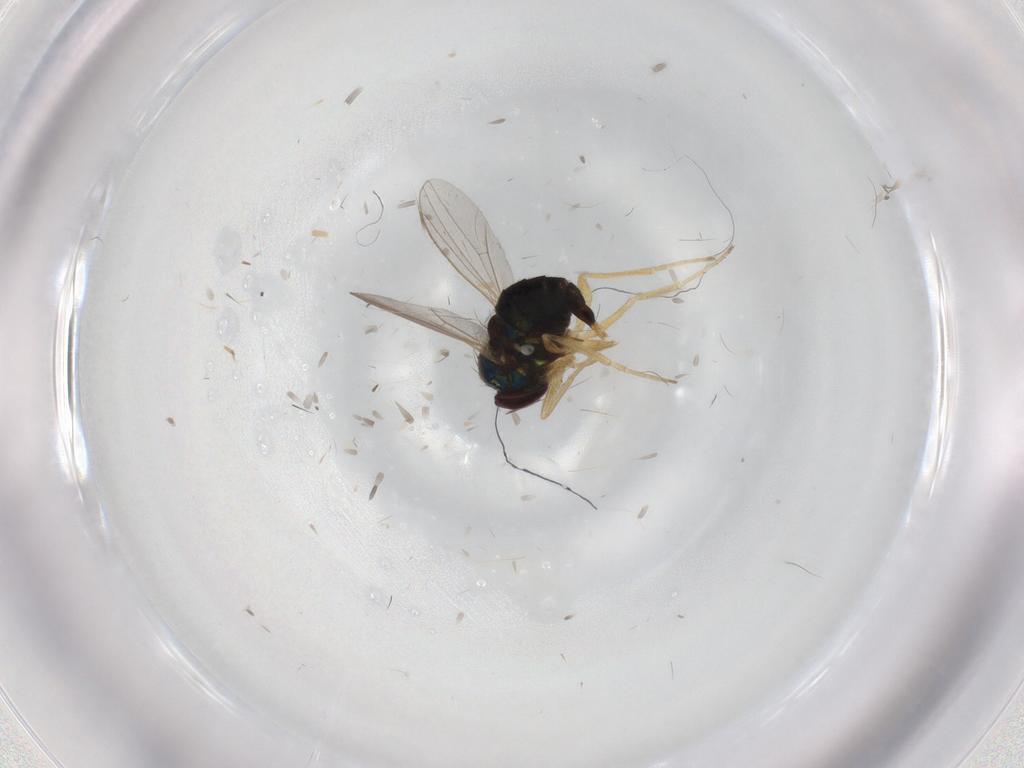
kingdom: Animalia
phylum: Arthropoda
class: Insecta
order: Diptera
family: Dolichopodidae
